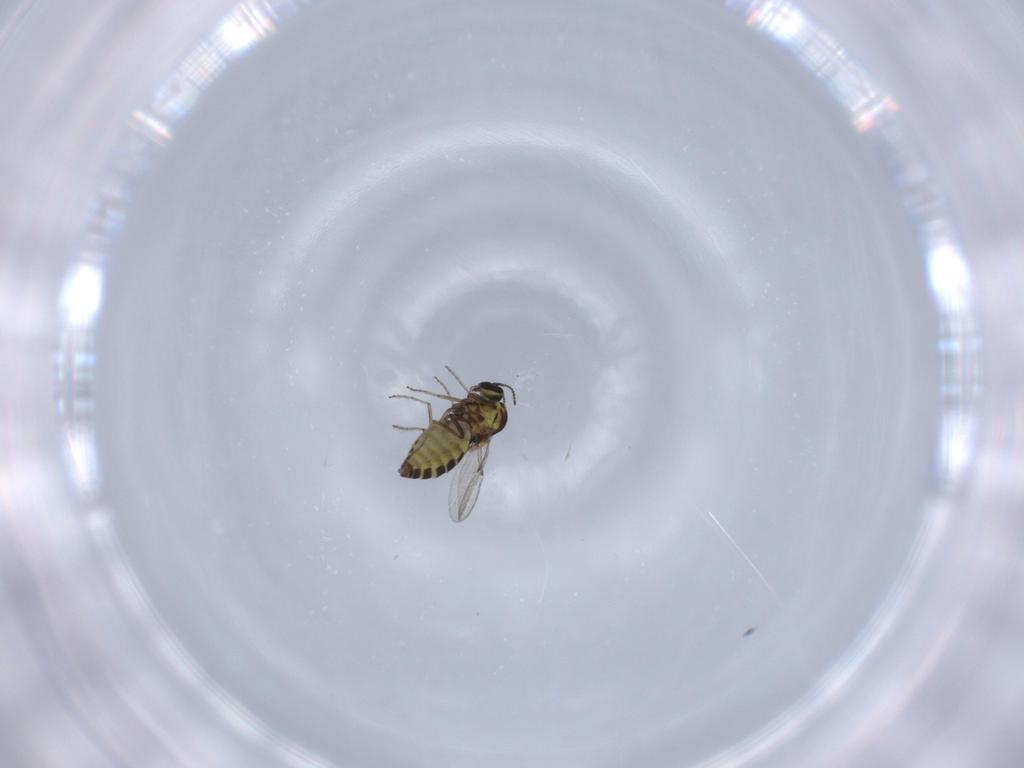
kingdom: Animalia
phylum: Arthropoda
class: Insecta
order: Diptera
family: Ceratopogonidae
